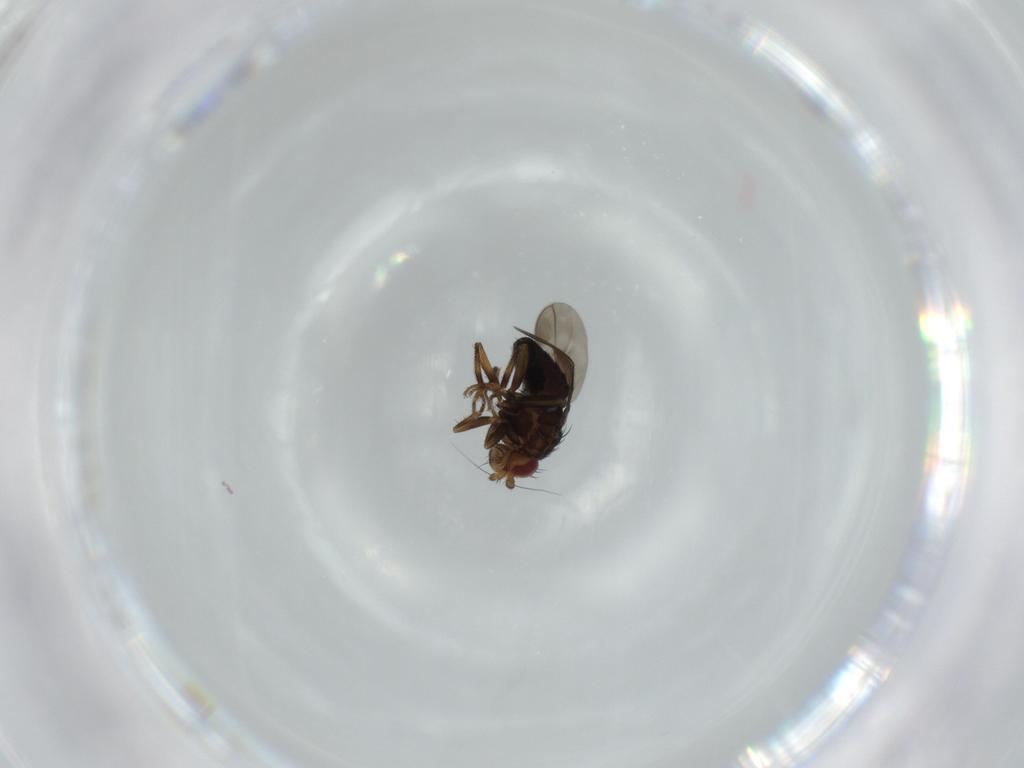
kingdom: Animalia
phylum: Arthropoda
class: Insecta
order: Diptera
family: Sphaeroceridae
